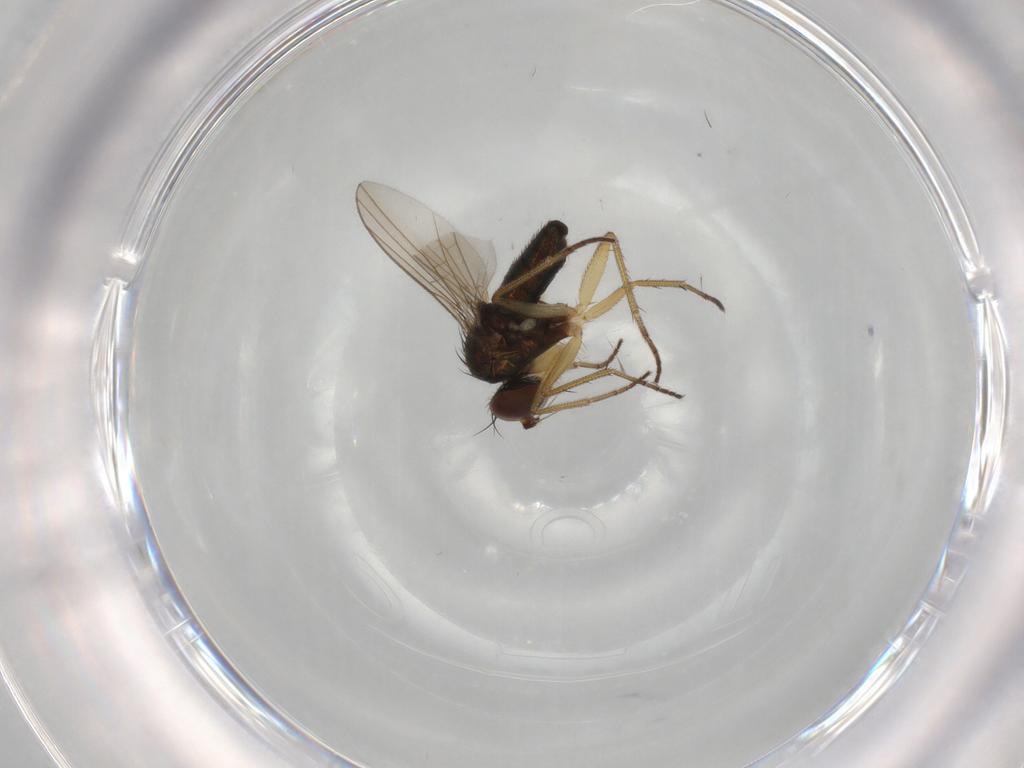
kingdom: Animalia
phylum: Arthropoda
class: Insecta
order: Diptera
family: Dolichopodidae
